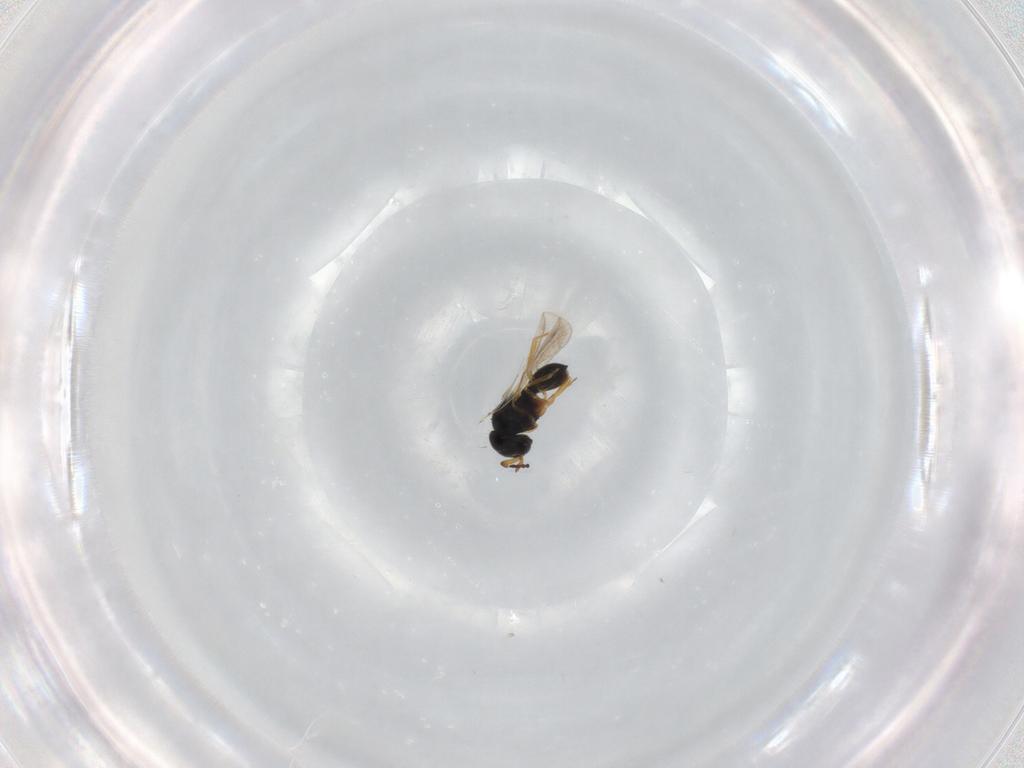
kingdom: Animalia
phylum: Arthropoda
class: Insecta
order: Hymenoptera
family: Scelionidae
